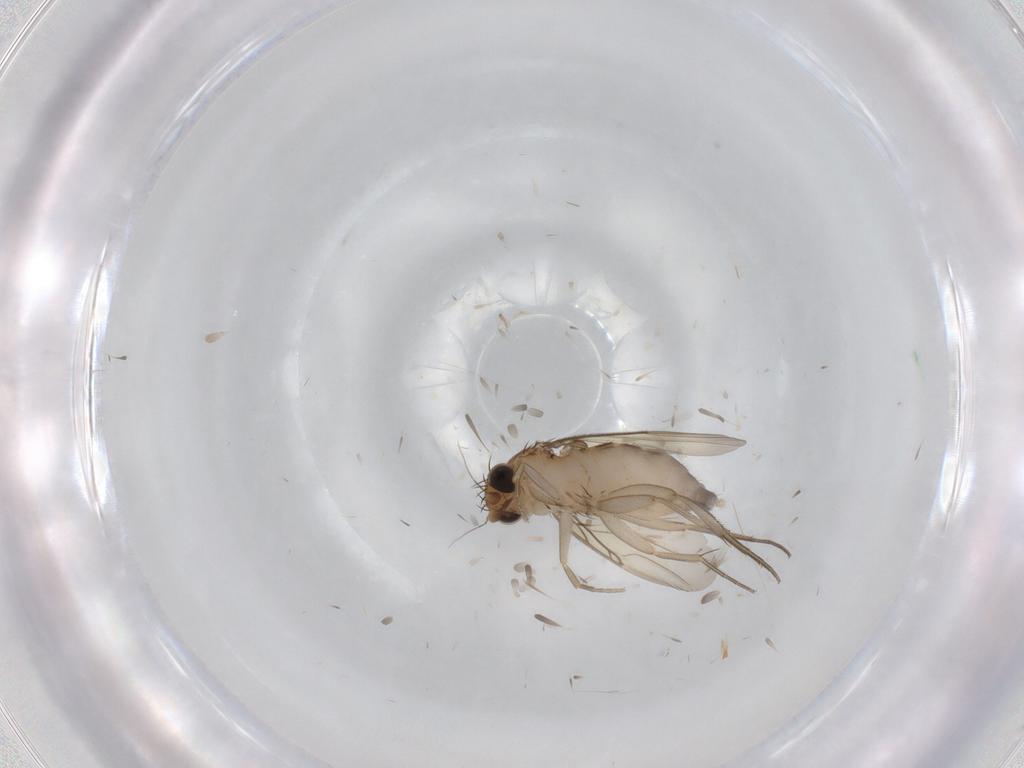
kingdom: Animalia
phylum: Arthropoda
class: Insecta
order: Diptera
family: Phoridae
